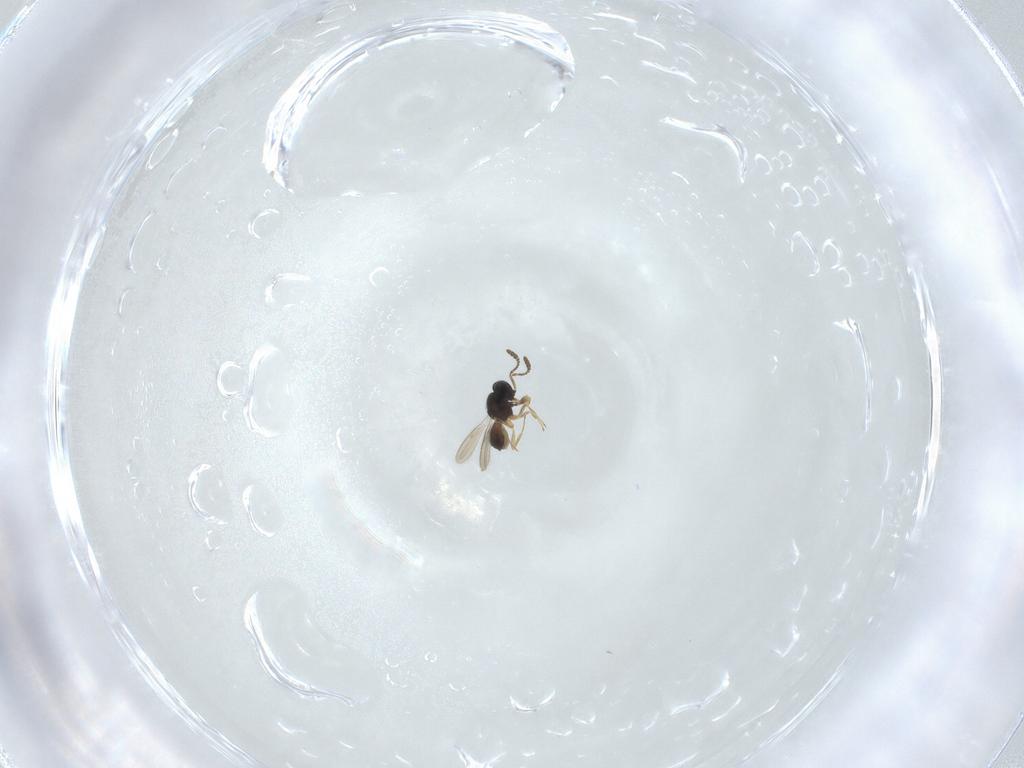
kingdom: Animalia
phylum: Arthropoda
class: Insecta
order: Hymenoptera
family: Scelionidae
